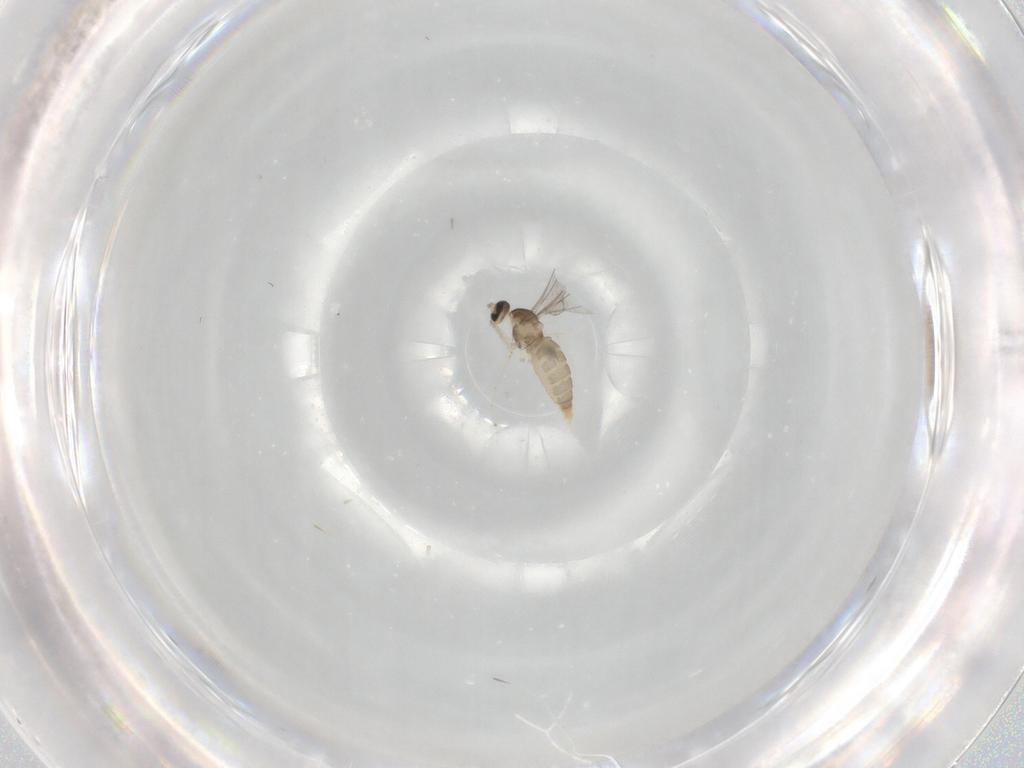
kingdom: Animalia
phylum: Arthropoda
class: Insecta
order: Diptera
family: Cecidomyiidae
